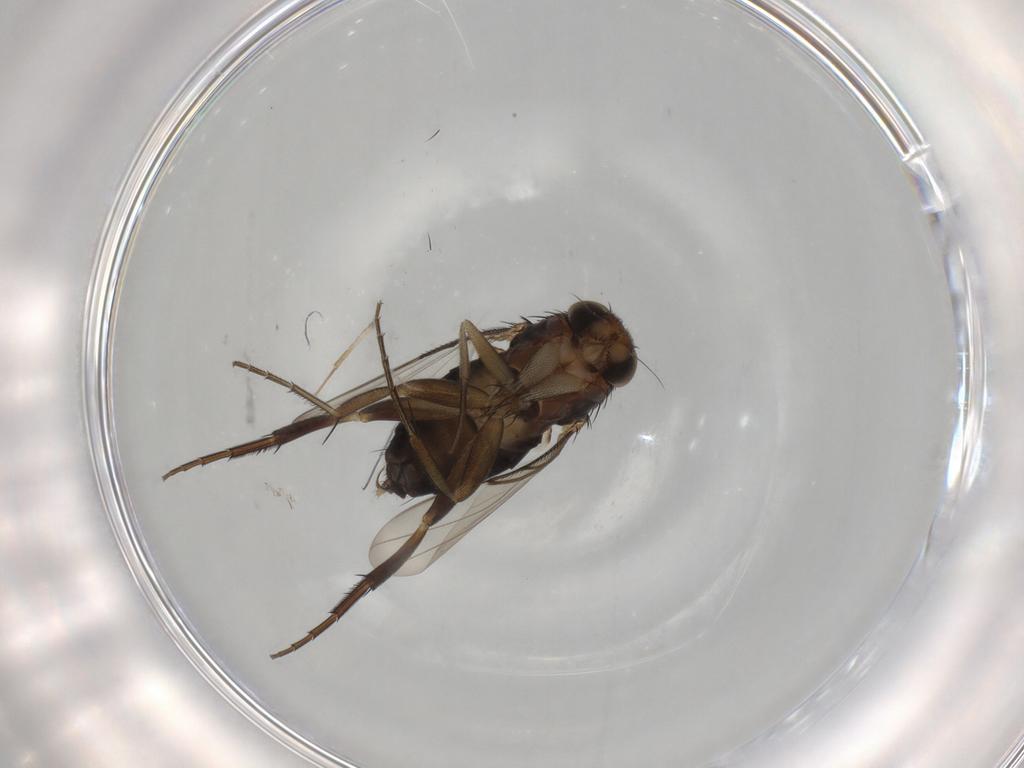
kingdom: Animalia
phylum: Arthropoda
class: Insecta
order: Diptera
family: Phoridae
